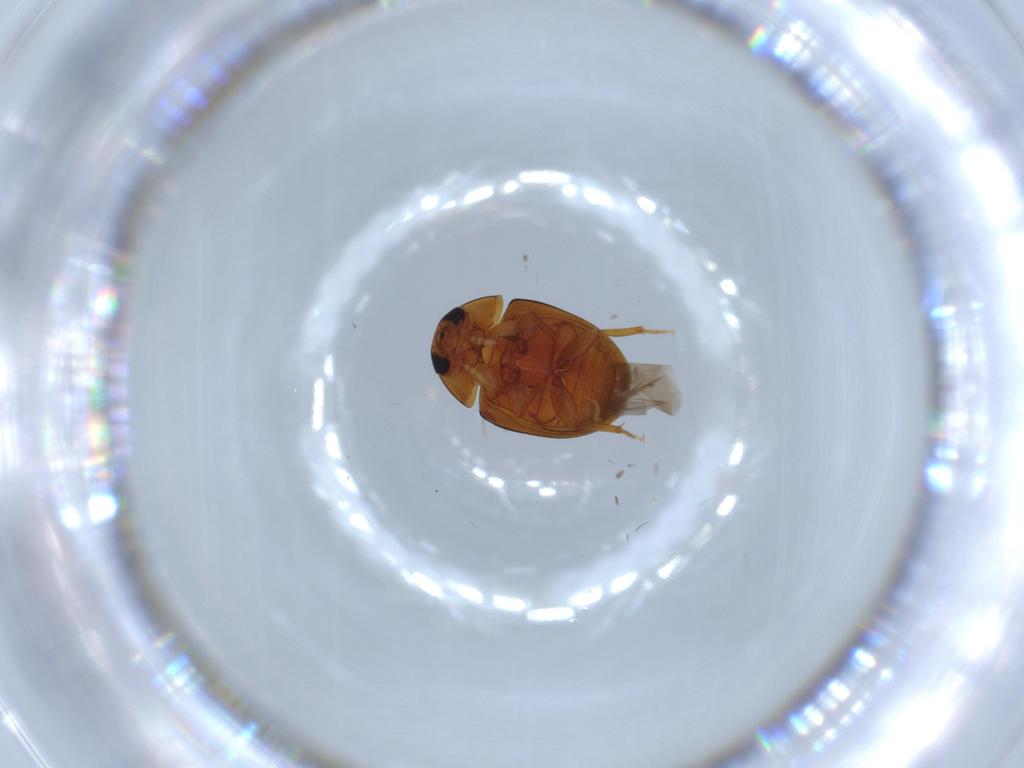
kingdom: Animalia
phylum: Arthropoda
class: Insecta
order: Coleoptera
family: Phalacridae
